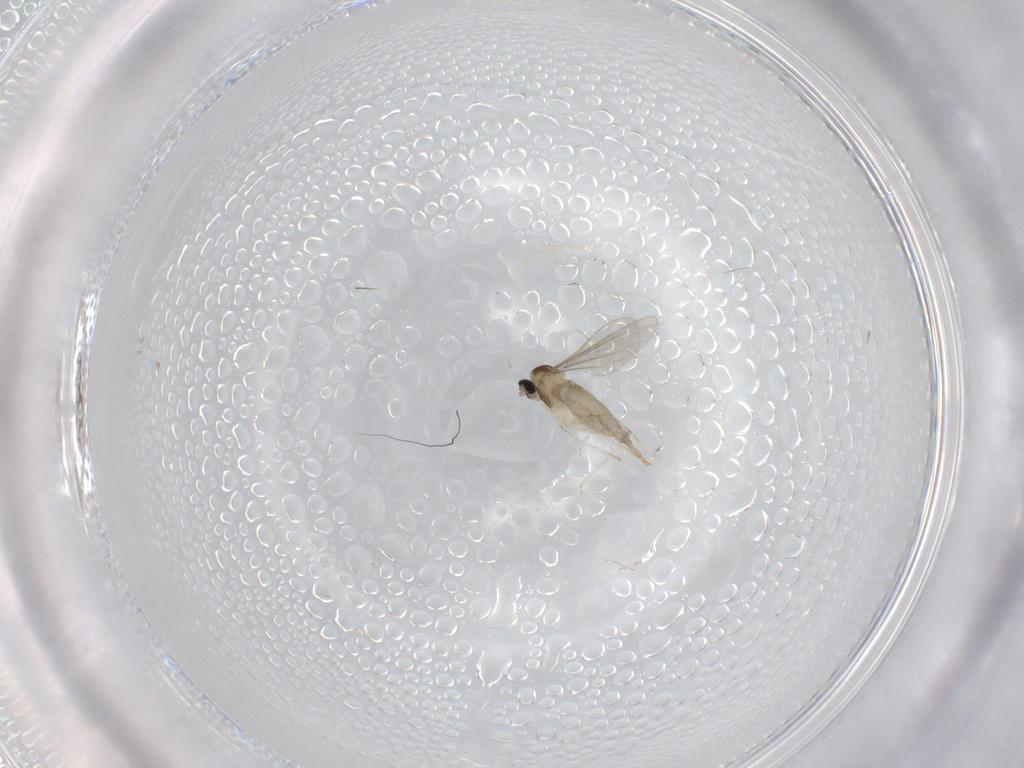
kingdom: Animalia
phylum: Arthropoda
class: Insecta
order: Diptera
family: Cecidomyiidae
